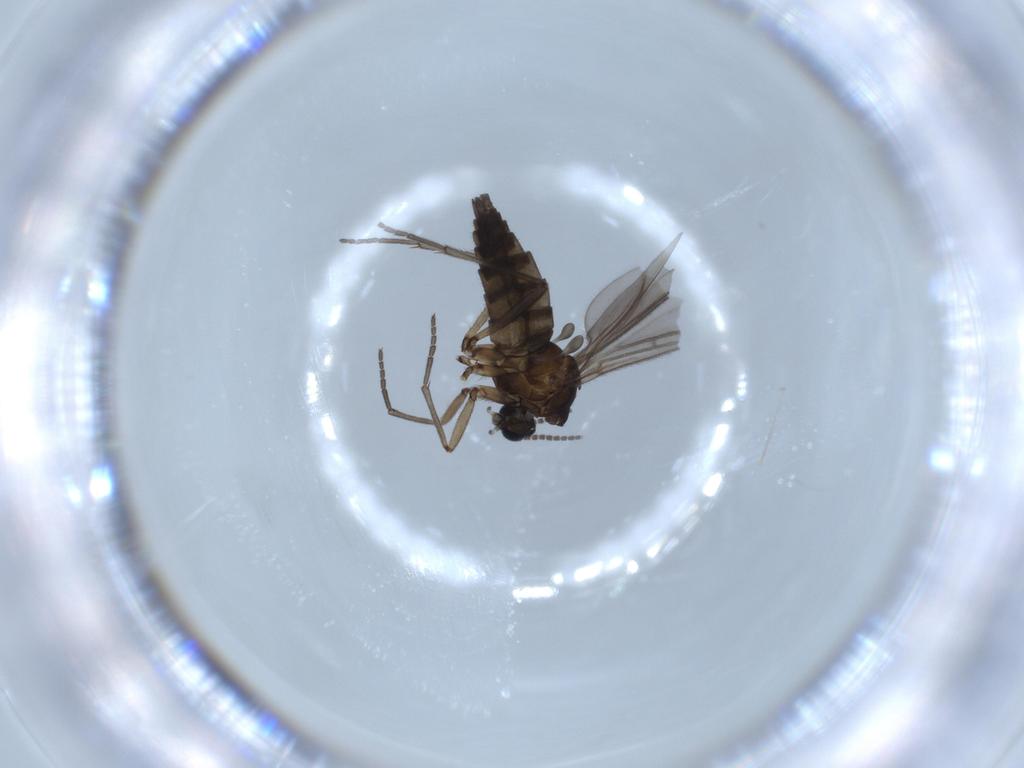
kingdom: Animalia
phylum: Arthropoda
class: Insecta
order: Diptera
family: Sciaridae
